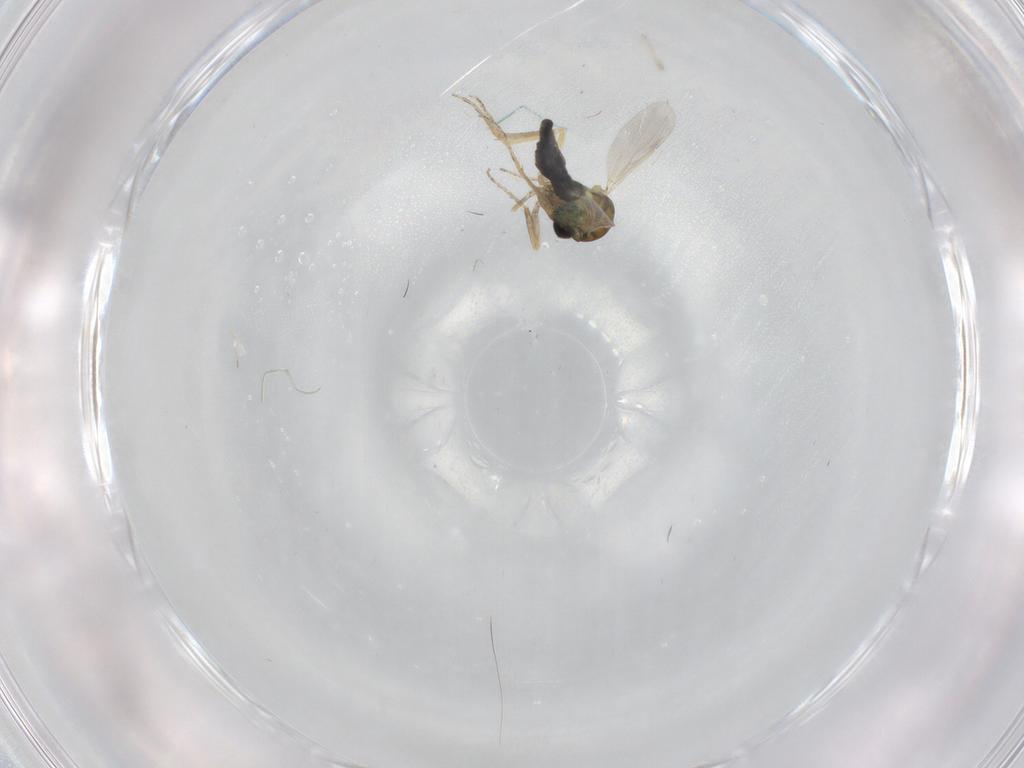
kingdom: Animalia
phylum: Arthropoda
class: Insecta
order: Diptera
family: Ceratopogonidae
